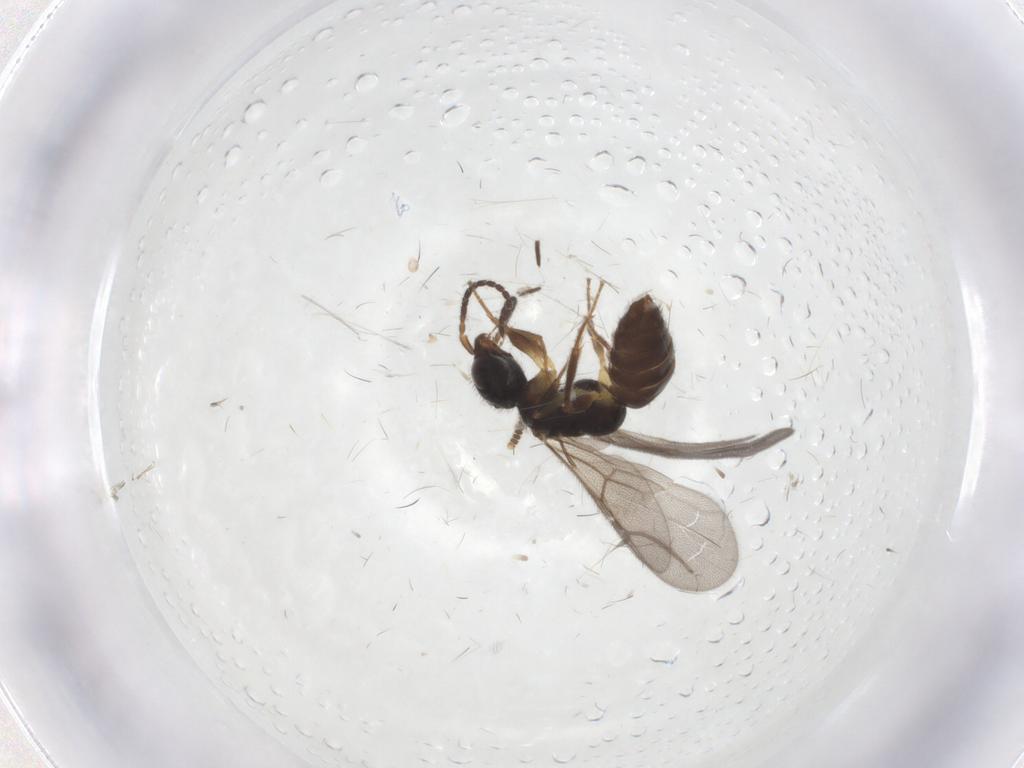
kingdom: Animalia
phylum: Arthropoda
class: Insecta
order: Hymenoptera
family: Bethylidae
